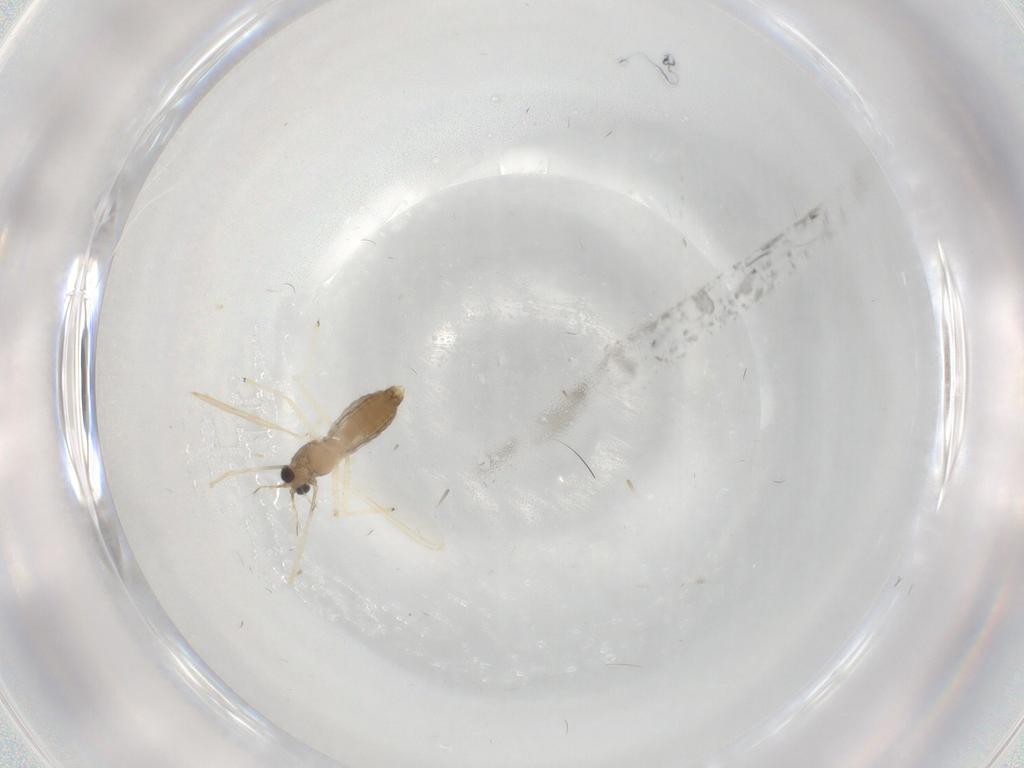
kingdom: Animalia
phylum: Arthropoda
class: Insecta
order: Diptera
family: Chironomidae
